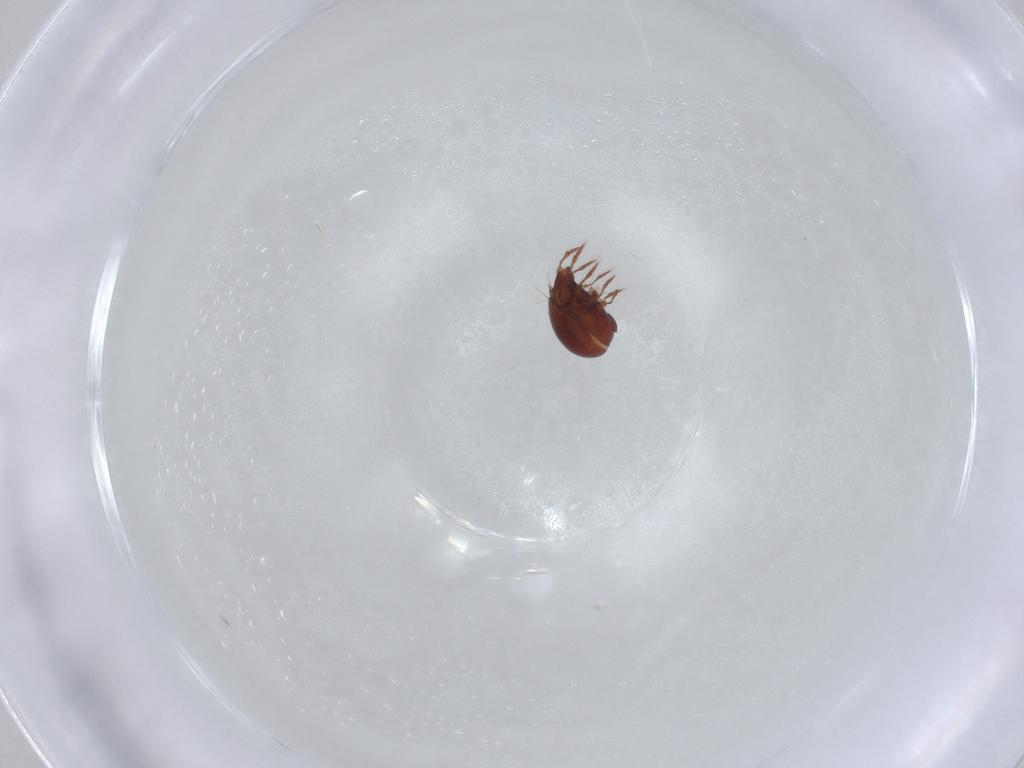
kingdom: Animalia
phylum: Arthropoda
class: Arachnida
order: Sarcoptiformes
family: Ceratozetidae
